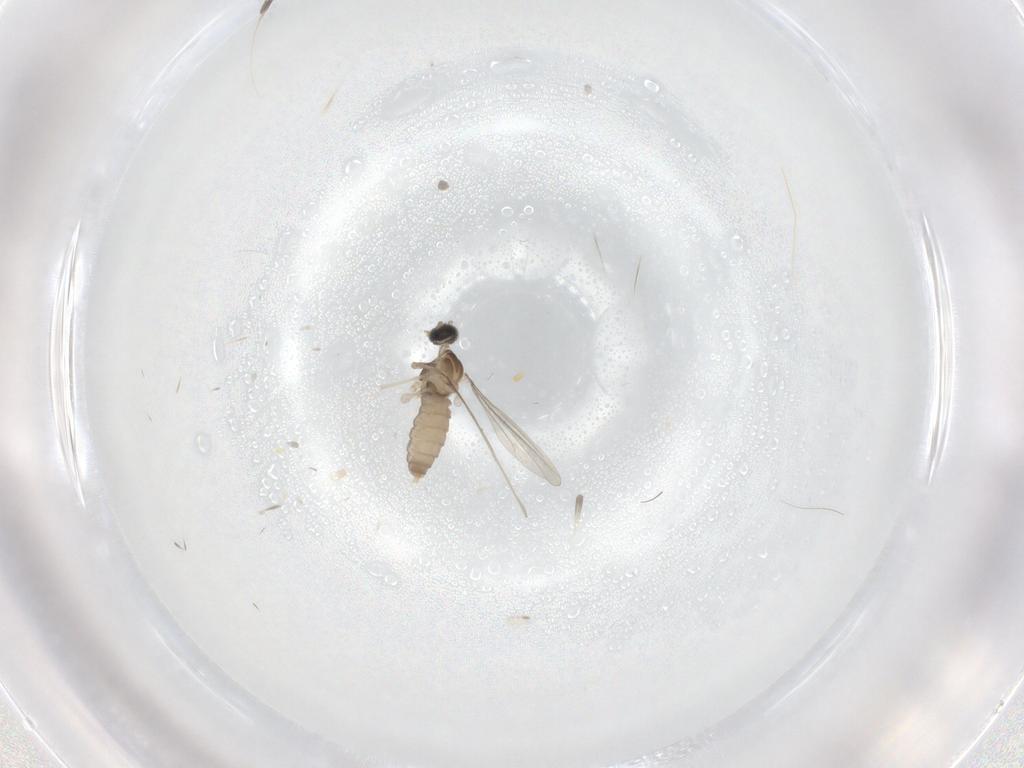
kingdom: Animalia
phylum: Arthropoda
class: Insecta
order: Diptera
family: Cecidomyiidae
